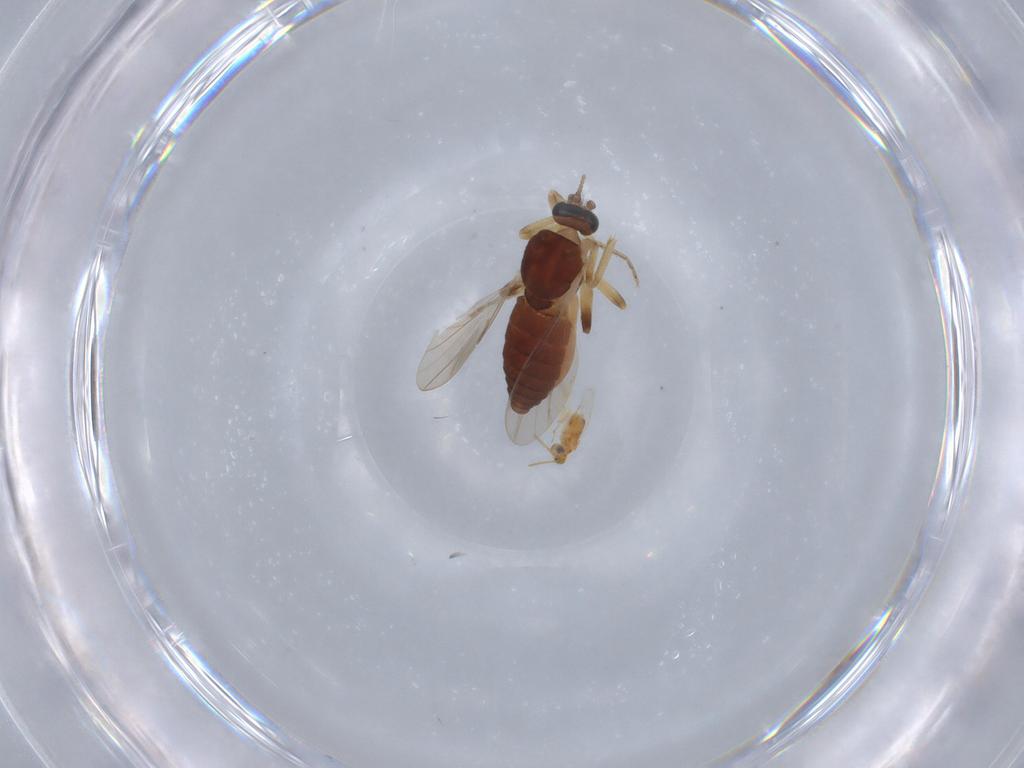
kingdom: Animalia
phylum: Arthropoda
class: Insecta
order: Diptera
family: Ceratopogonidae
